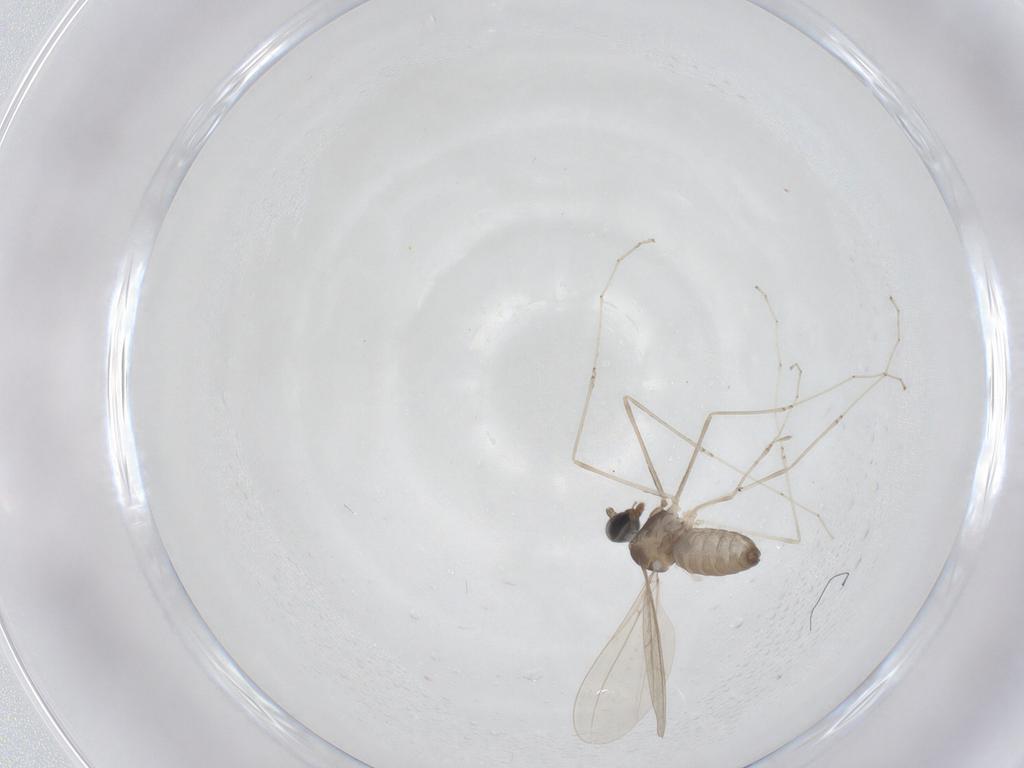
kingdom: Animalia
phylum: Arthropoda
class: Insecta
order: Diptera
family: Cecidomyiidae
